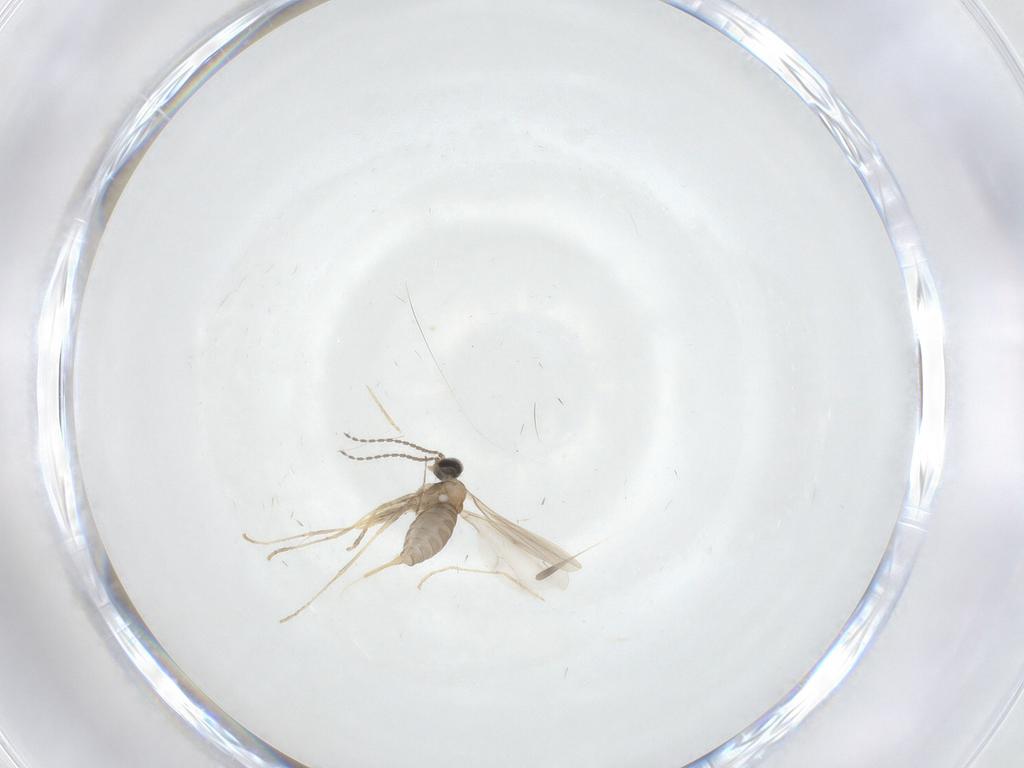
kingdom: Animalia
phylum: Arthropoda
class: Insecta
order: Diptera
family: Cecidomyiidae
